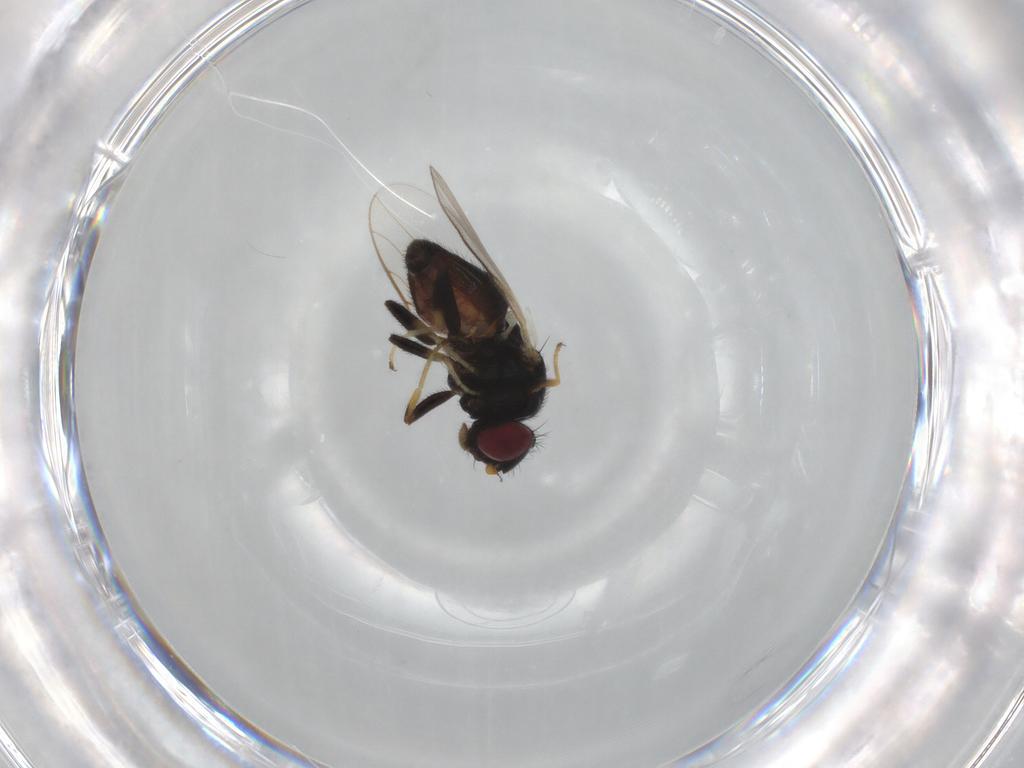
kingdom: Animalia
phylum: Arthropoda
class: Insecta
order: Diptera
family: Chloropidae
